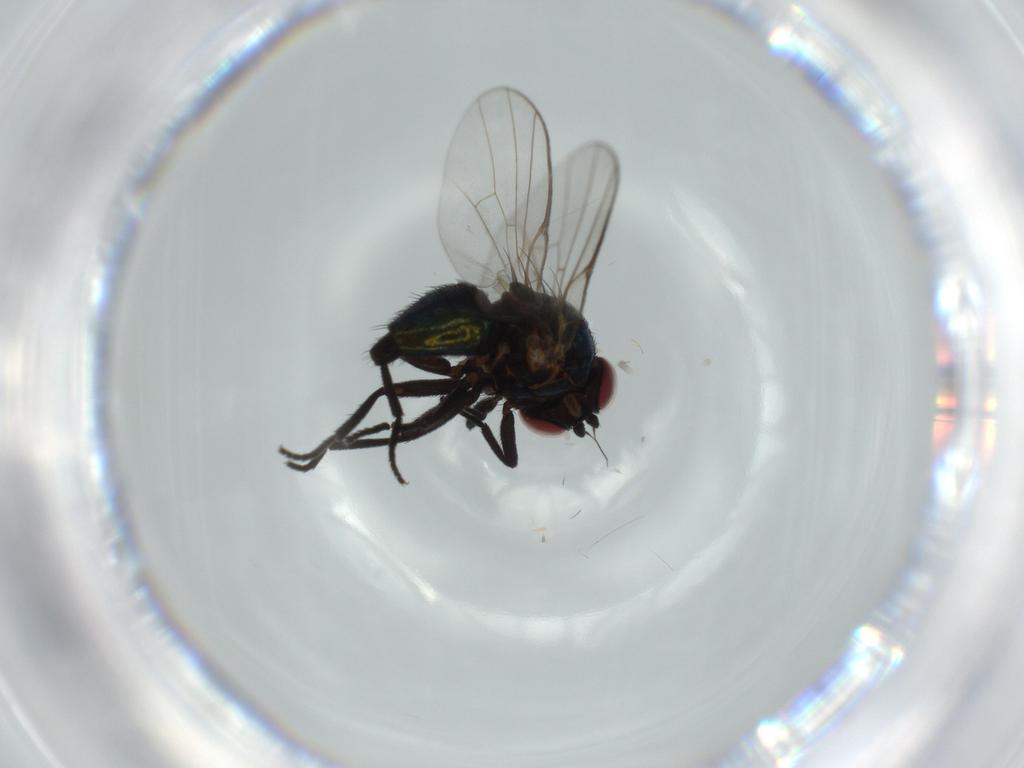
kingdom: Animalia
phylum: Arthropoda
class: Insecta
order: Diptera
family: Agromyzidae
